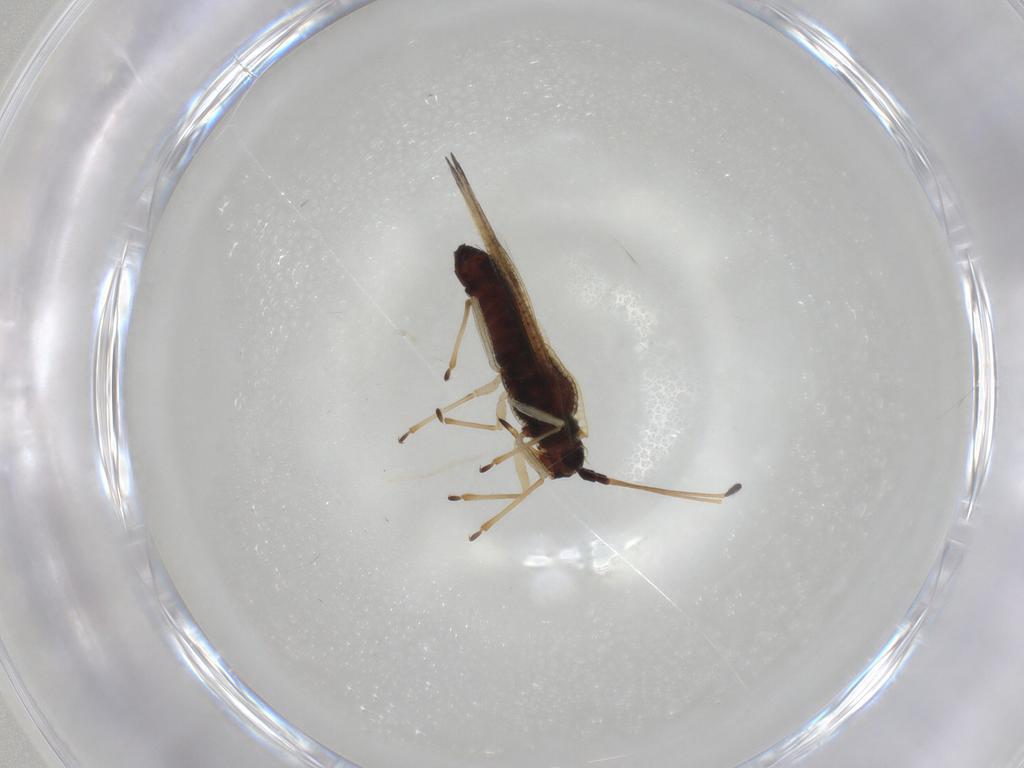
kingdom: Animalia
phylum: Arthropoda
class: Insecta
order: Hemiptera
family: Tingidae
